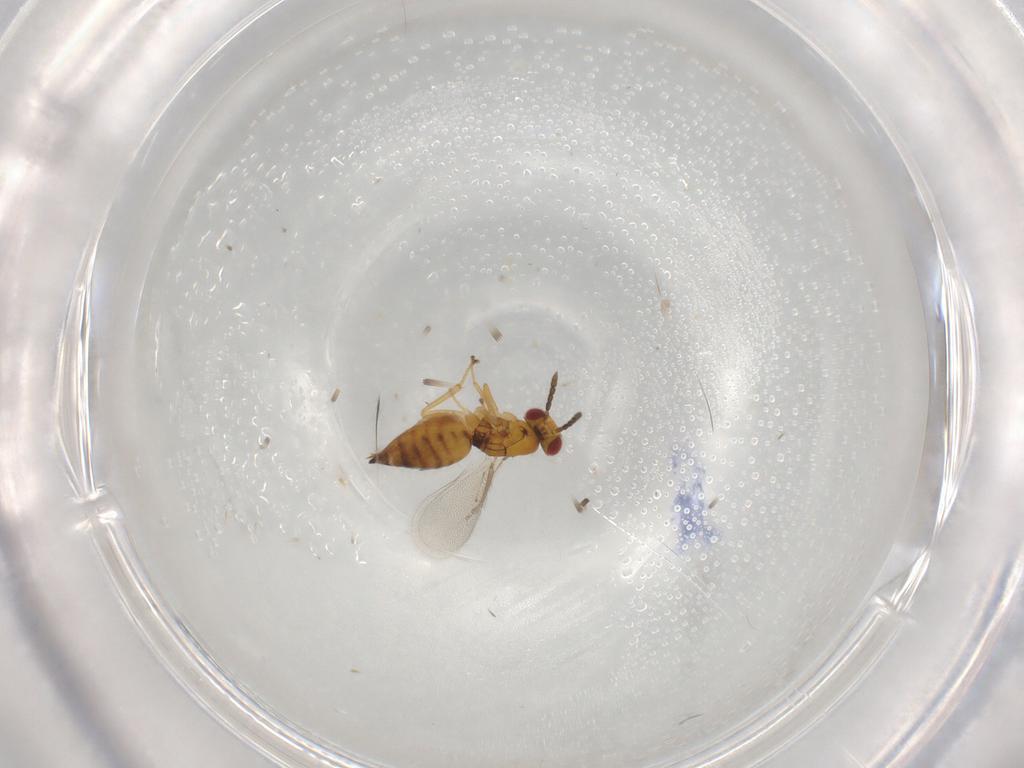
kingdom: Animalia
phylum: Arthropoda
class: Insecta
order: Hymenoptera
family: Eulophidae
